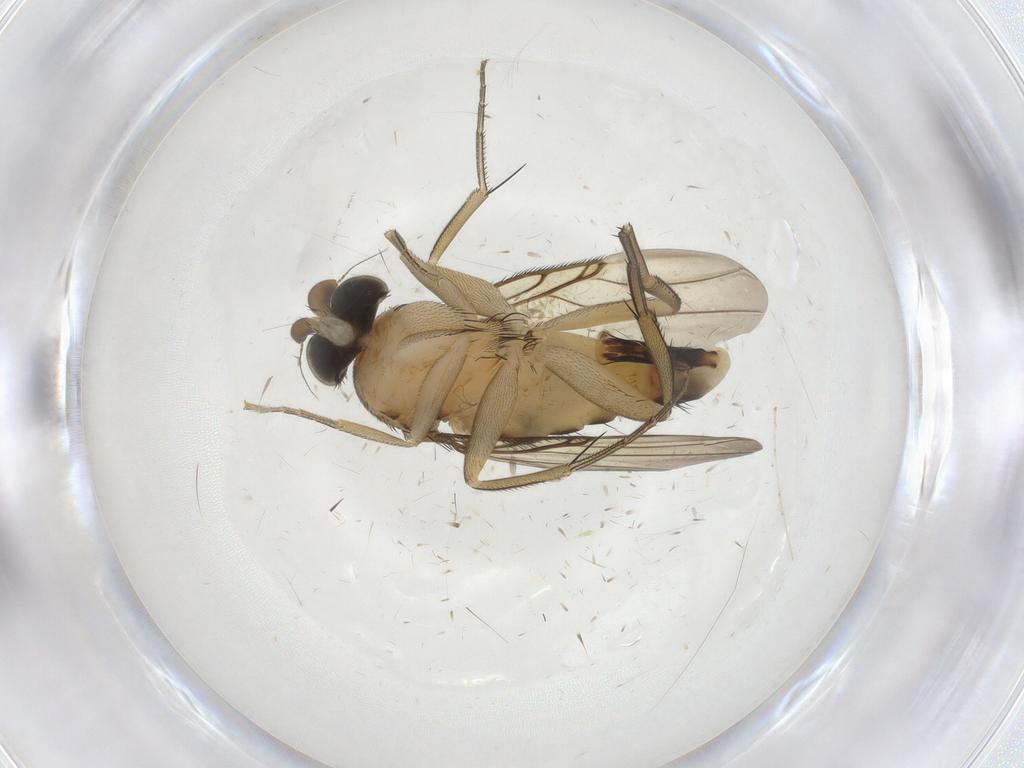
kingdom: Animalia
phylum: Arthropoda
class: Insecta
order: Diptera
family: Phoridae
